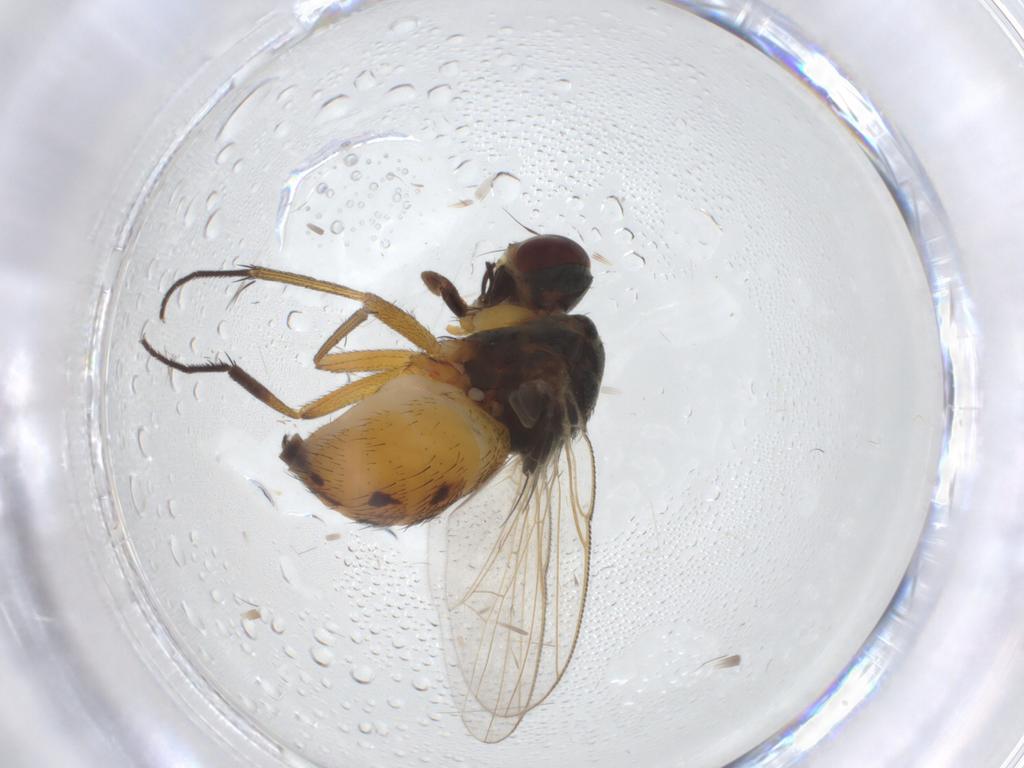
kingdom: Animalia
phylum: Arthropoda
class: Insecta
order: Diptera
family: Muscidae
